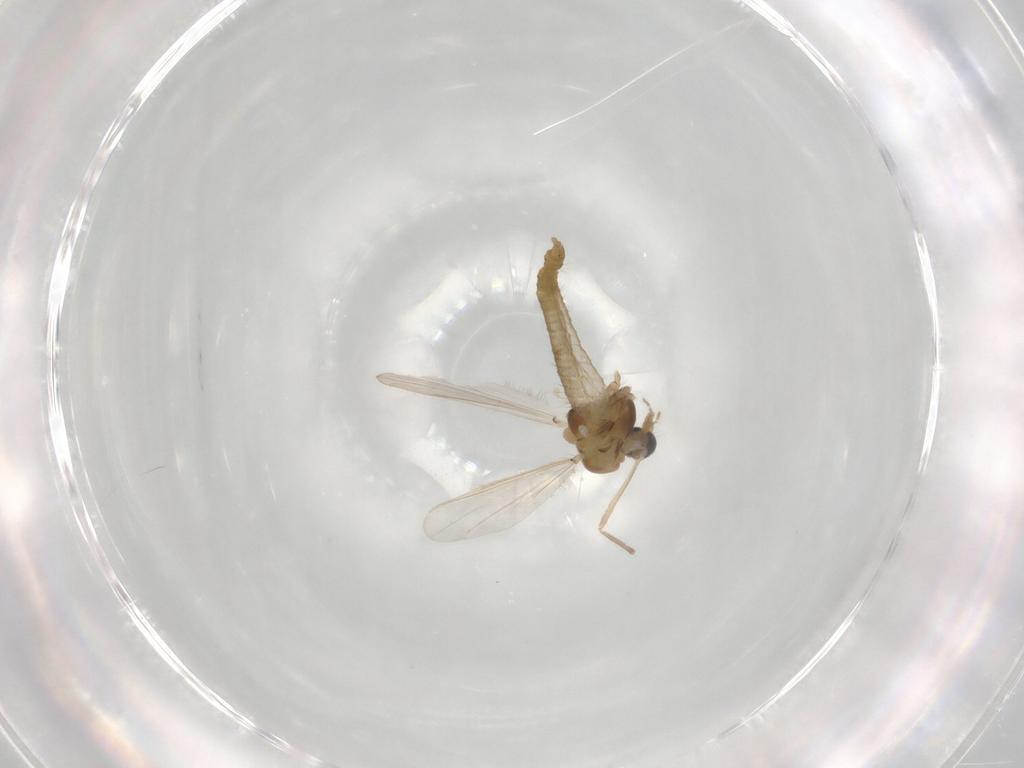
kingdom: Animalia
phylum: Arthropoda
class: Insecta
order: Diptera
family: Chironomidae
